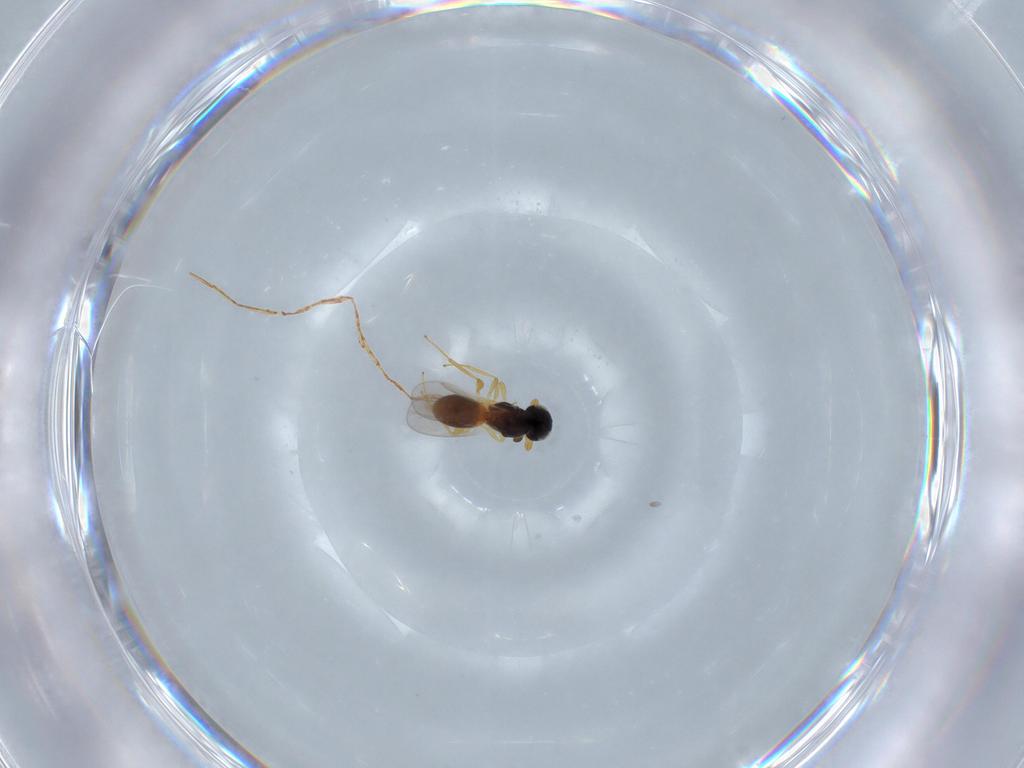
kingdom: Animalia
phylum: Arthropoda
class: Insecta
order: Hymenoptera
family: Platygastridae
